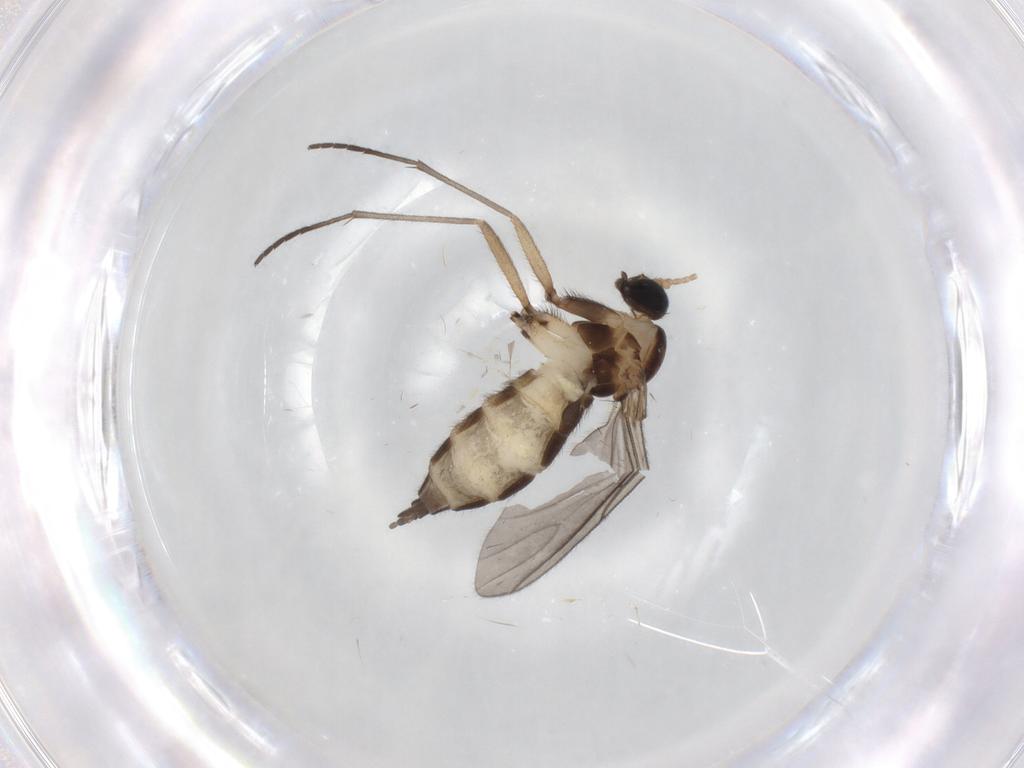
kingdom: Animalia
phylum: Arthropoda
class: Insecta
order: Diptera
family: Sciaridae
